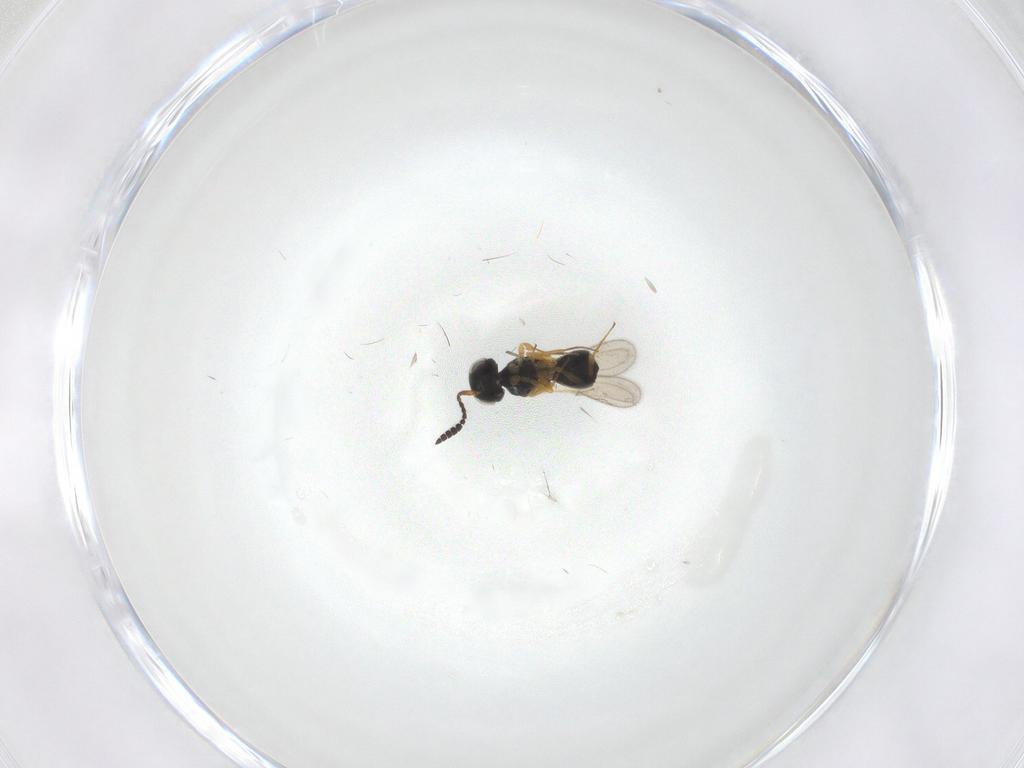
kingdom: Animalia
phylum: Arthropoda
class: Insecta
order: Hymenoptera
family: Scelionidae
